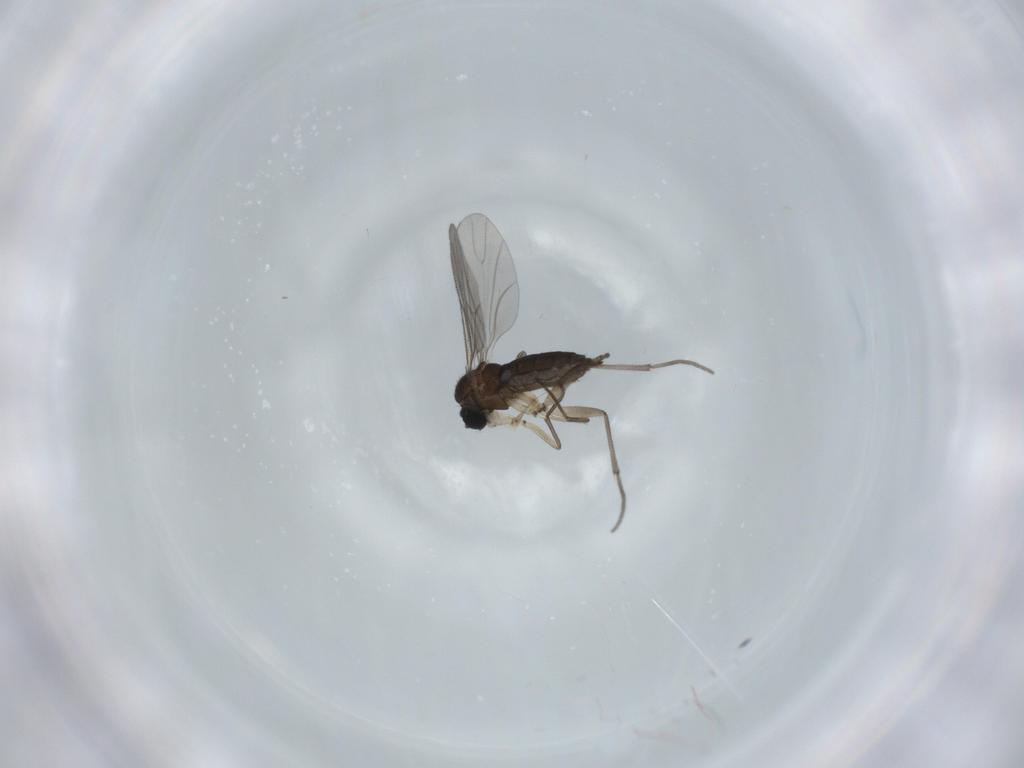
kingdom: Animalia
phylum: Arthropoda
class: Insecta
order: Diptera
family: Sciaridae
